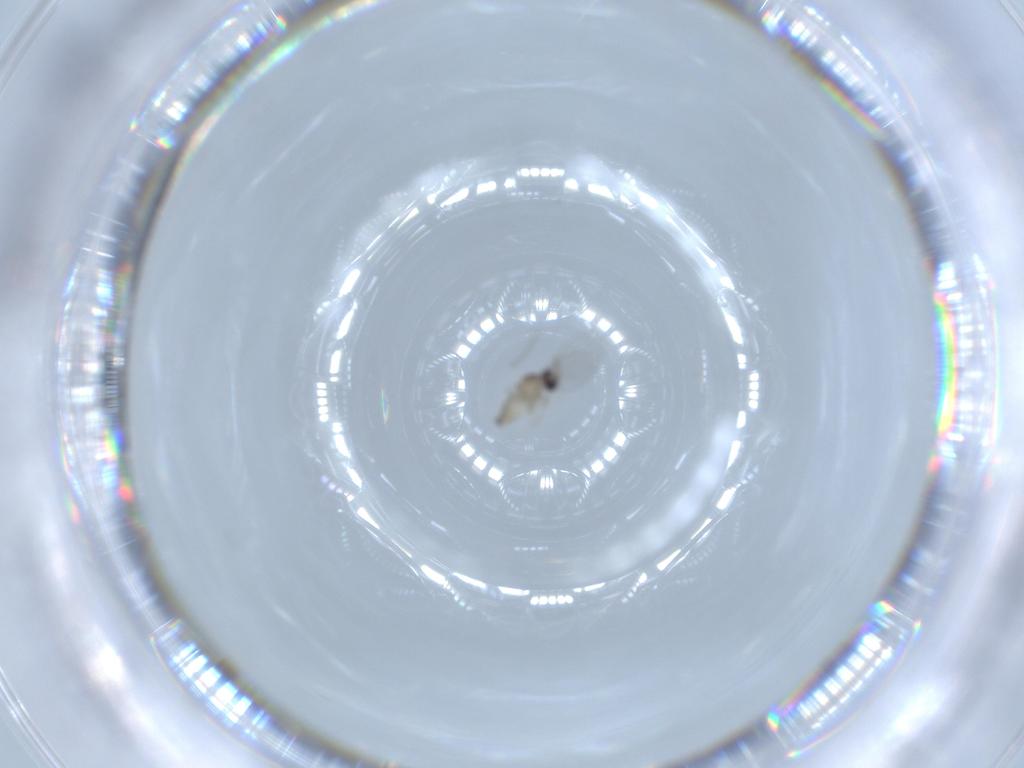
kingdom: Animalia
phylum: Arthropoda
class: Insecta
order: Diptera
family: Cecidomyiidae
